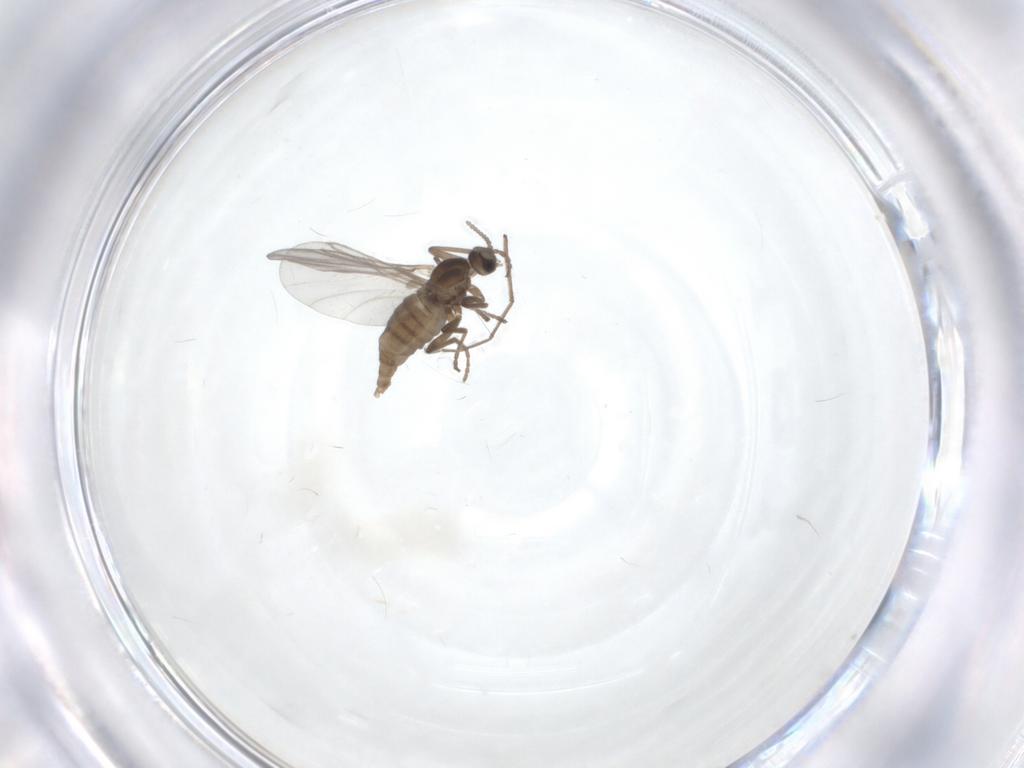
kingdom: Animalia
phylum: Arthropoda
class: Insecta
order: Diptera
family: Cecidomyiidae
